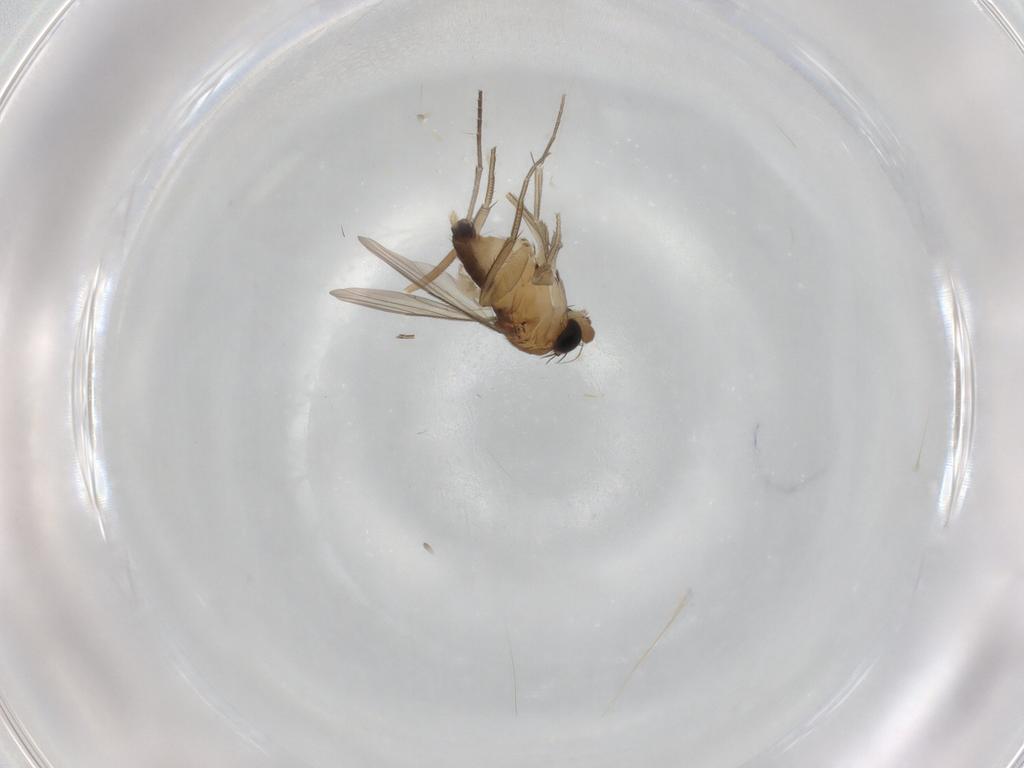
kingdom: Animalia
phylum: Arthropoda
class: Insecta
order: Diptera
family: Phoridae
